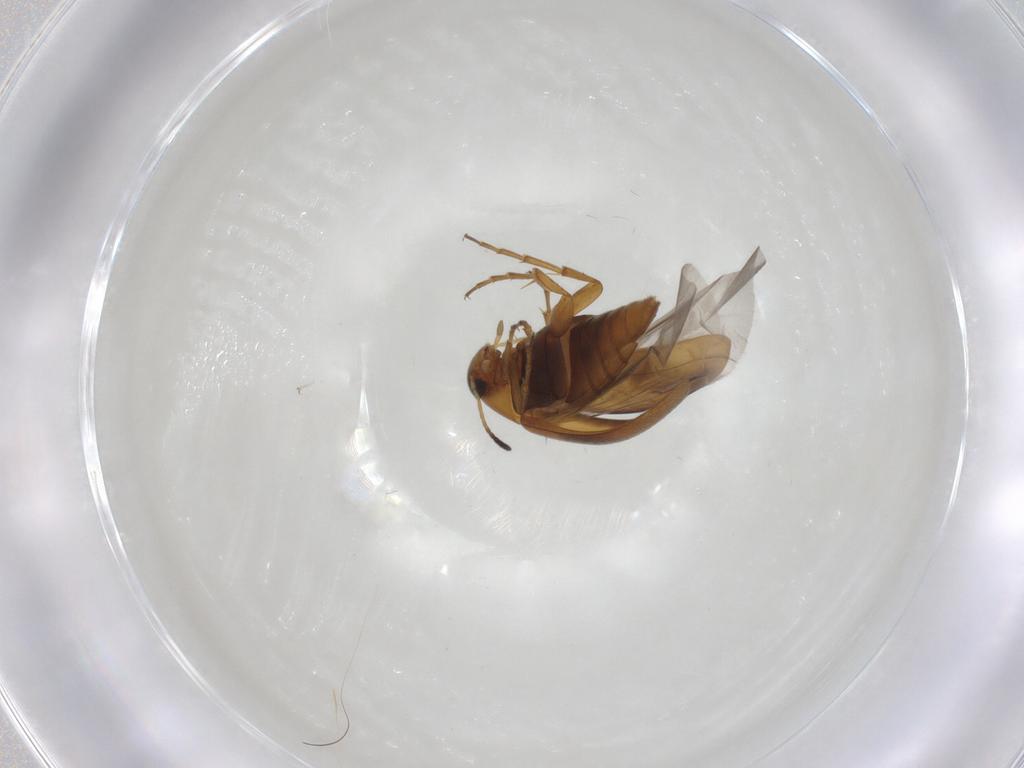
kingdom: Animalia
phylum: Arthropoda
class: Insecta
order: Coleoptera
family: Scraptiidae
